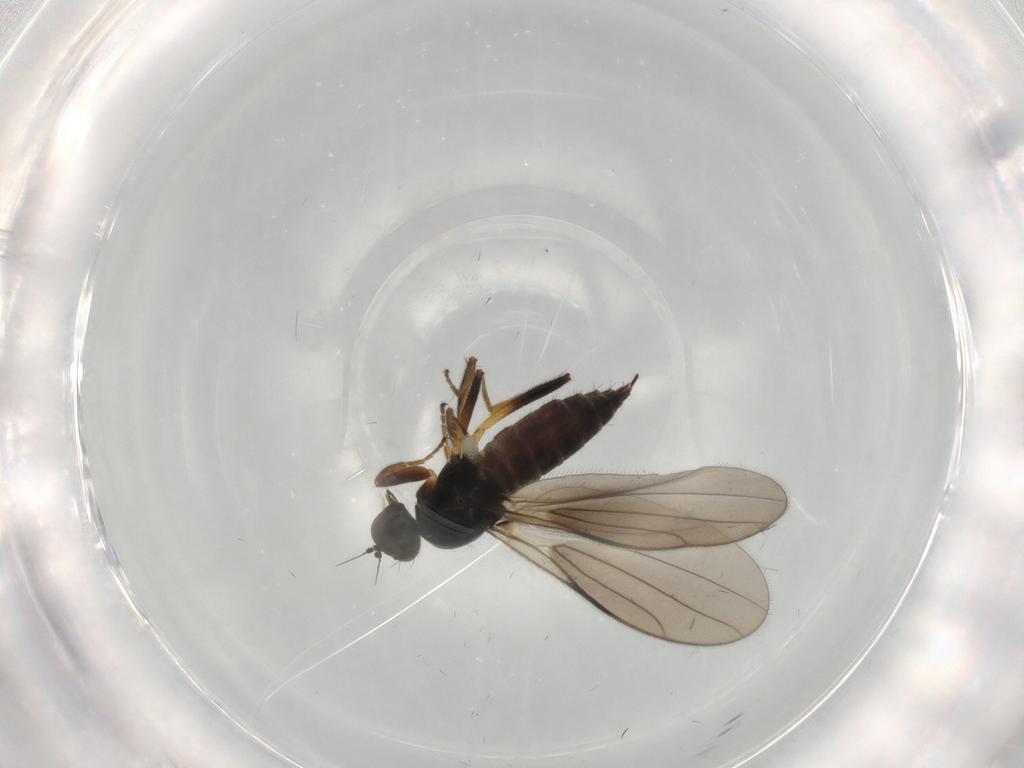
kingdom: Animalia
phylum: Arthropoda
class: Insecta
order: Diptera
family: Hybotidae
